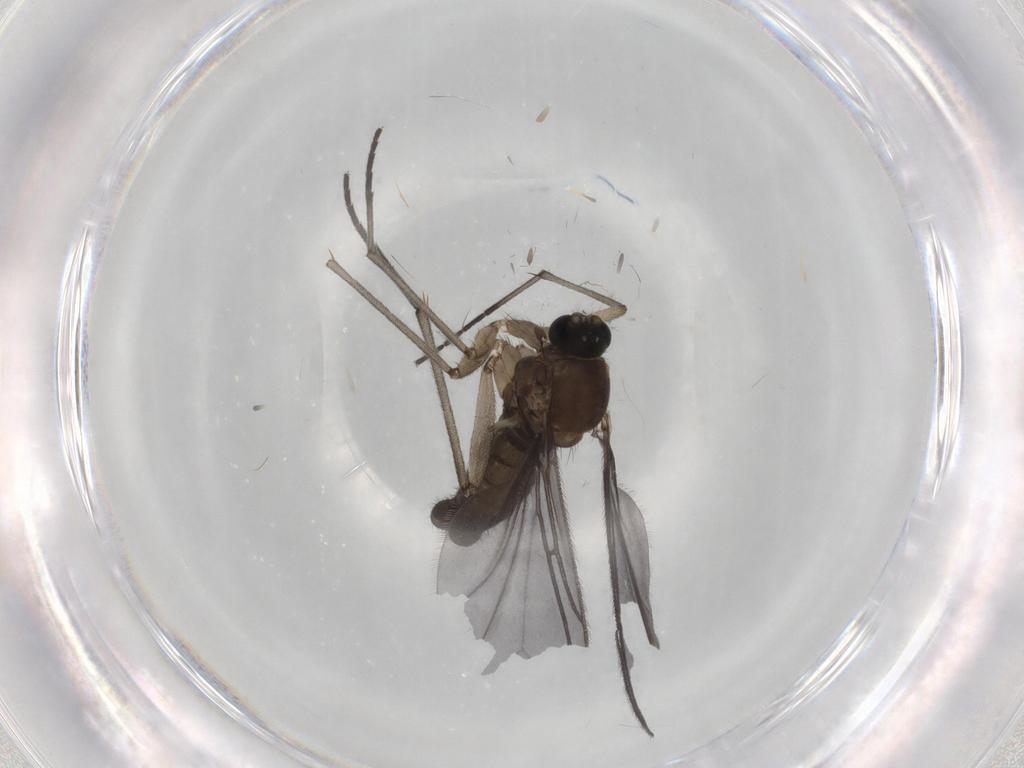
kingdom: Animalia
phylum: Arthropoda
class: Insecta
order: Diptera
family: Sciaridae
